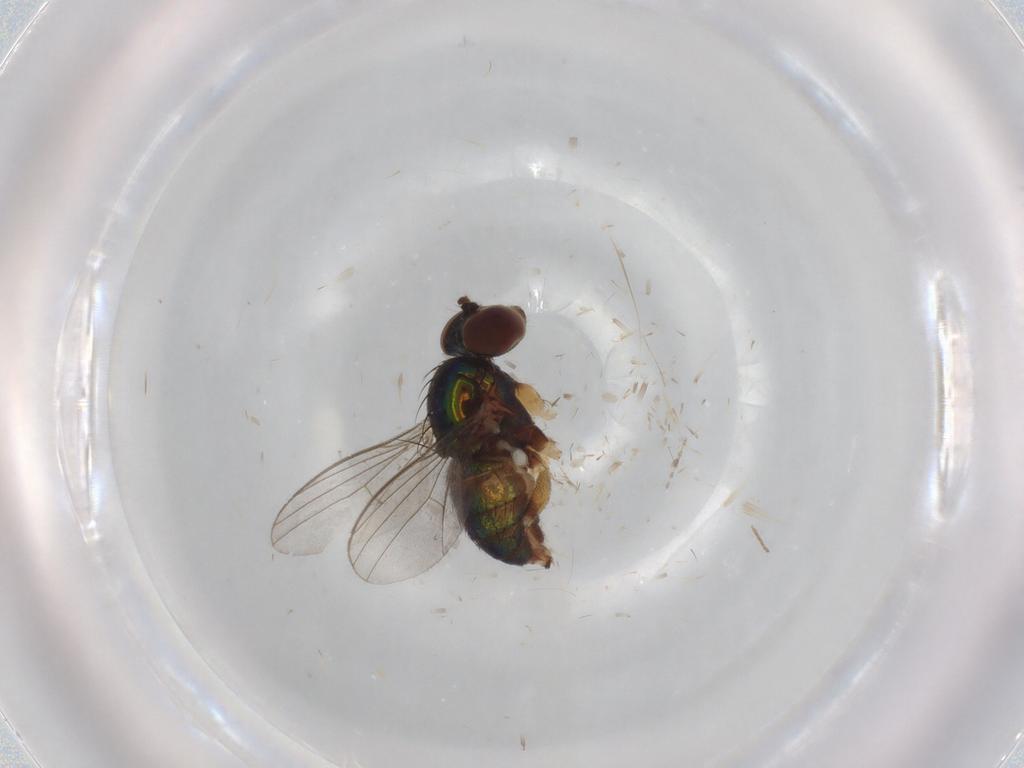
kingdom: Animalia
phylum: Arthropoda
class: Insecta
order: Diptera
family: Cecidomyiidae
